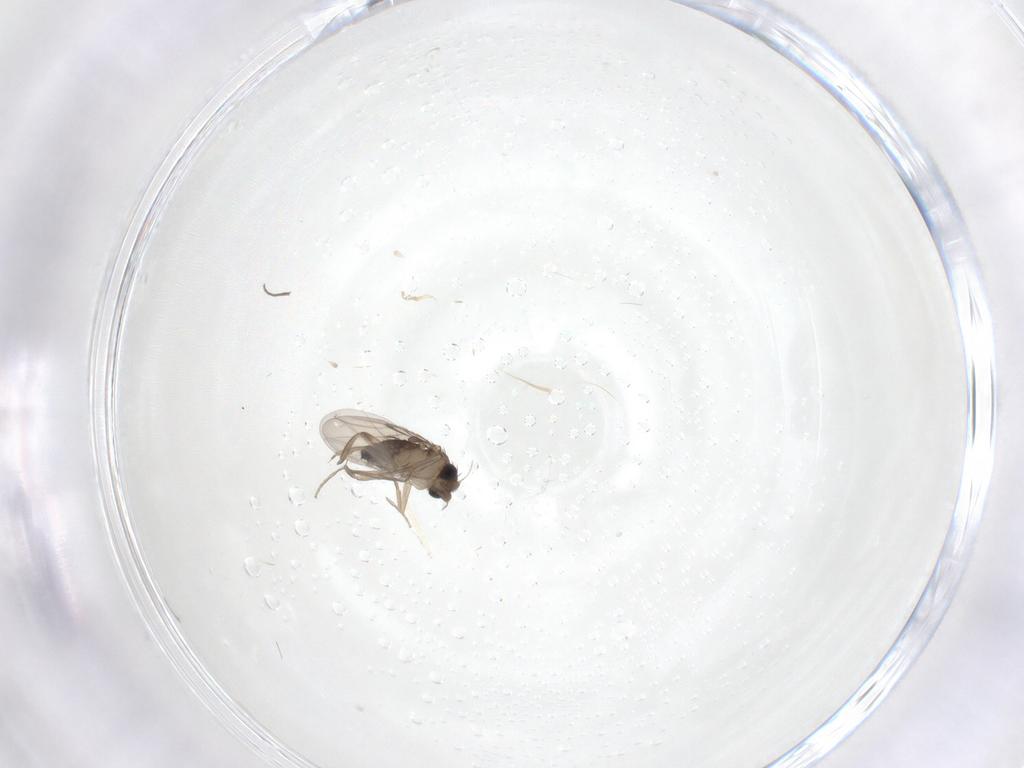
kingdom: Animalia
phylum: Arthropoda
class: Insecta
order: Diptera
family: Phoridae
